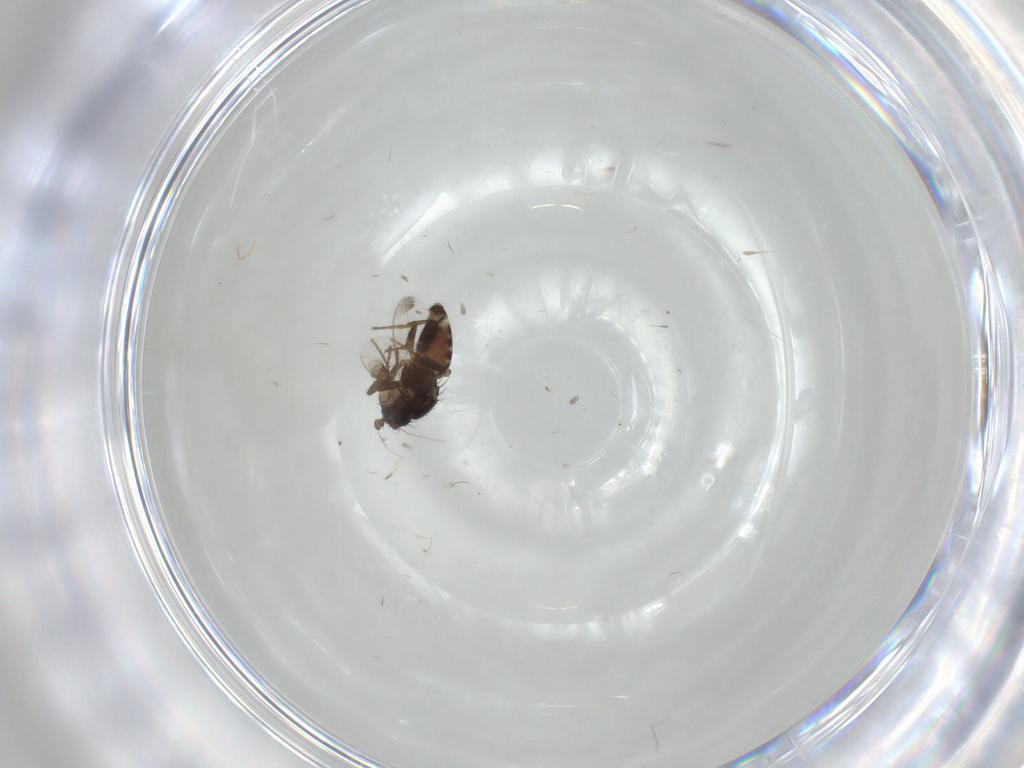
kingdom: Animalia
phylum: Arthropoda
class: Insecta
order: Diptera
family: Sphaeroceridae
